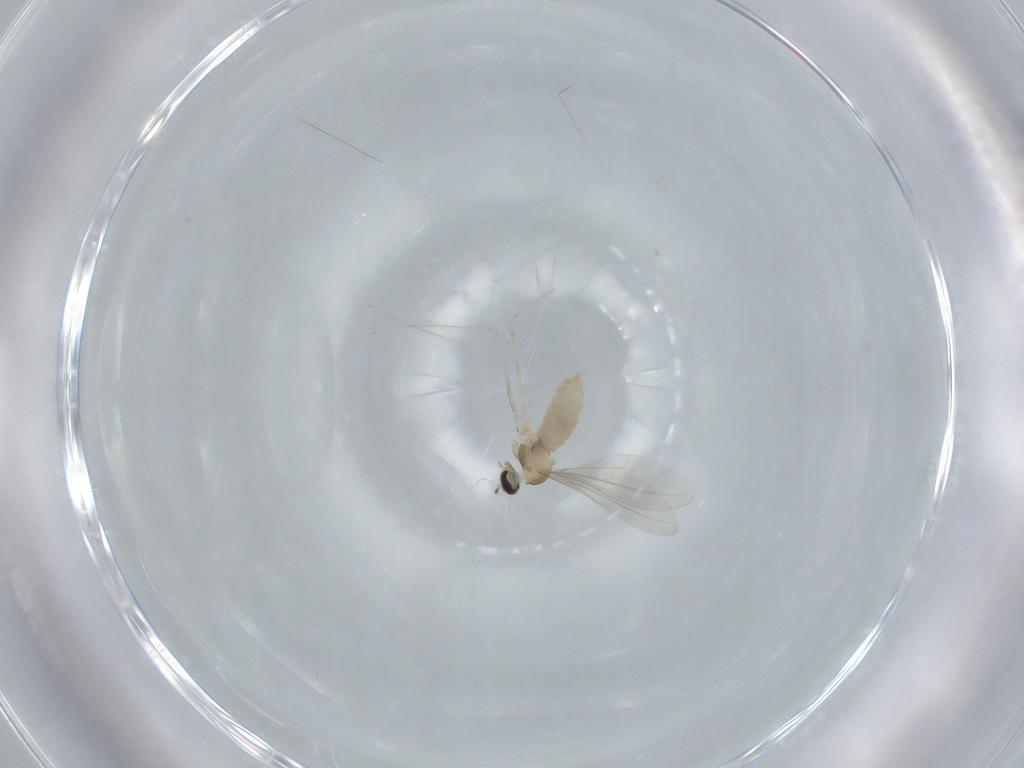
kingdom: Animalia
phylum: Arthropoda
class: Insecta
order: Diptera
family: Cecidomyiidae
